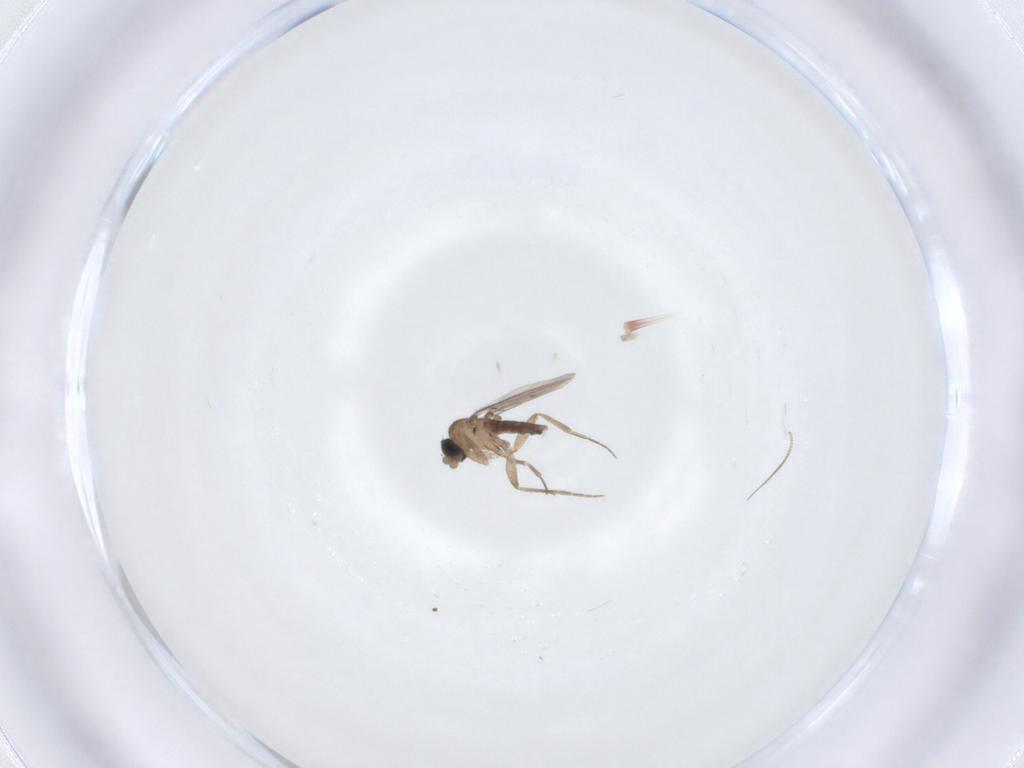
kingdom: Animalia
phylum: Arthropoda
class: Insecta
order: Diptera
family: Phoridae
